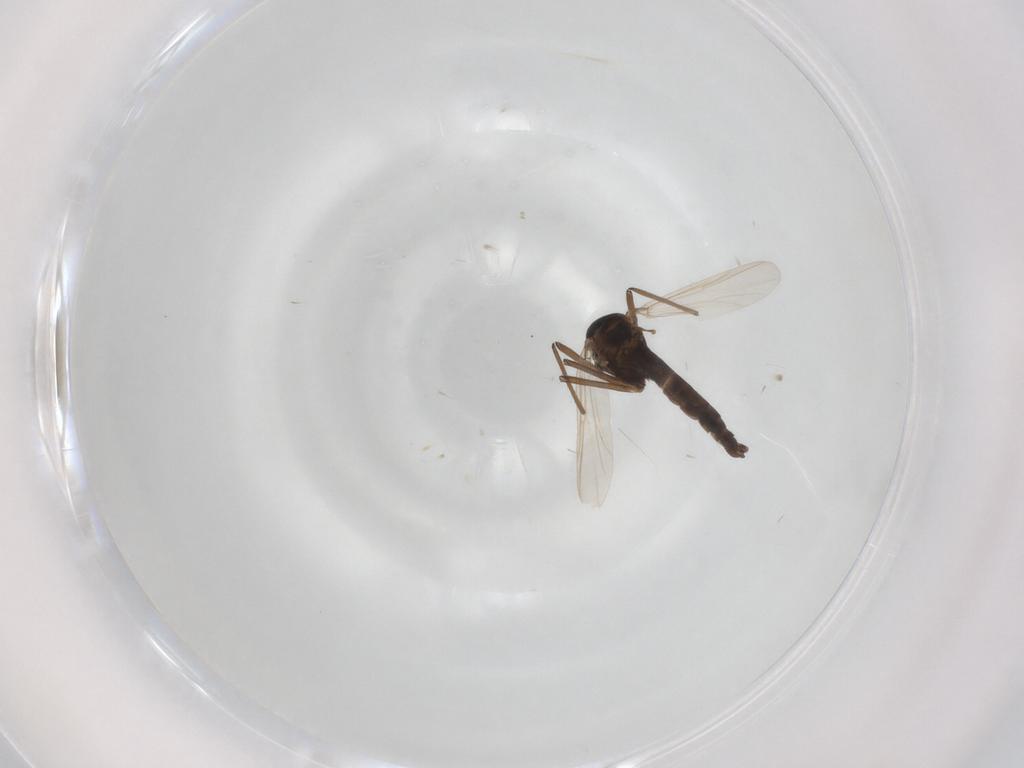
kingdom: Animalia
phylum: Arthropoda
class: Insecta
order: Diptera
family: Chironomidae
